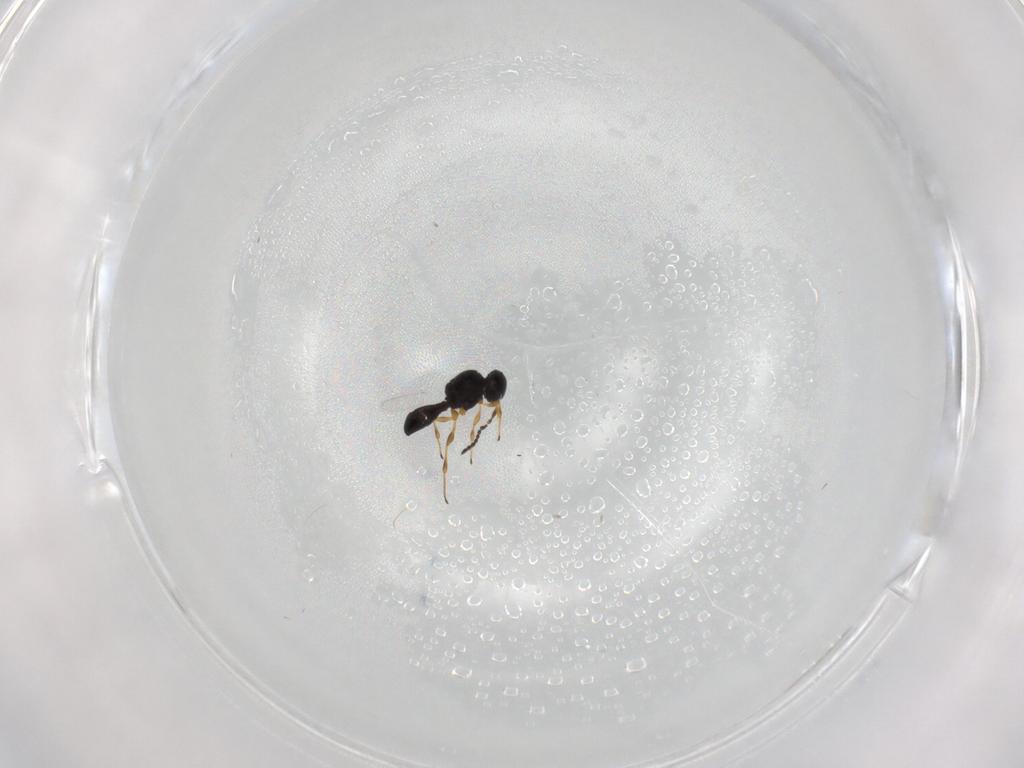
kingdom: Animalia
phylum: Arthropoda
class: Insecta
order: Hymenoptera
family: Platygastridae
